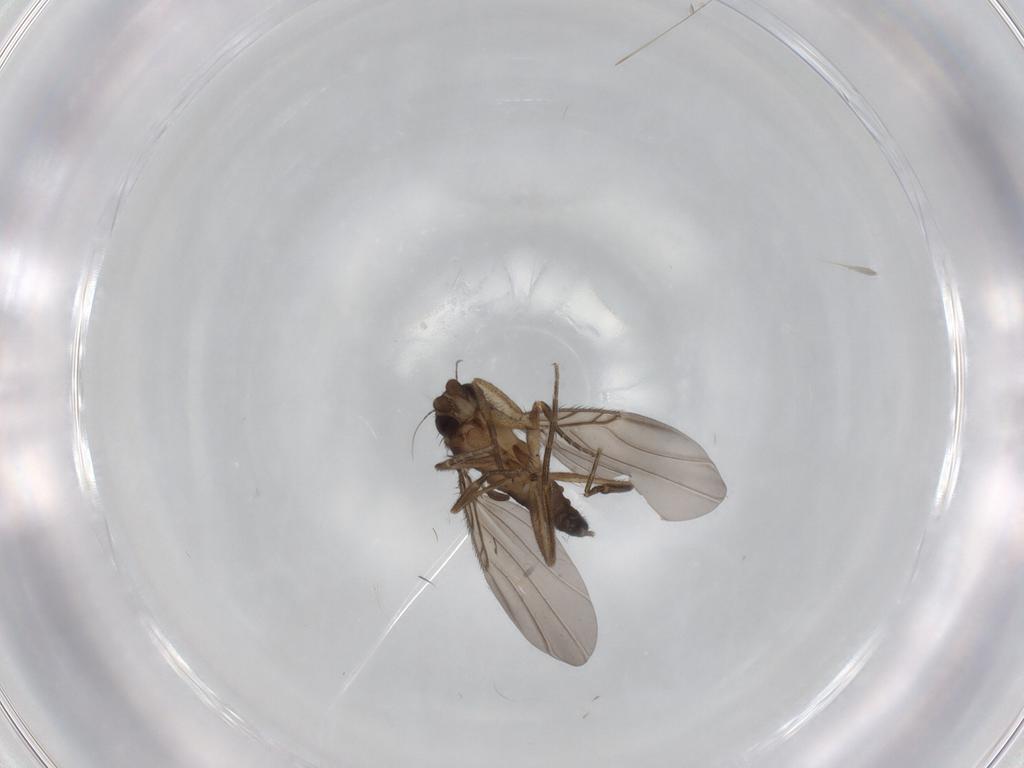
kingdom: Animalia
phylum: Arthropoda
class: Insecta
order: Diptera
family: Phoridae
